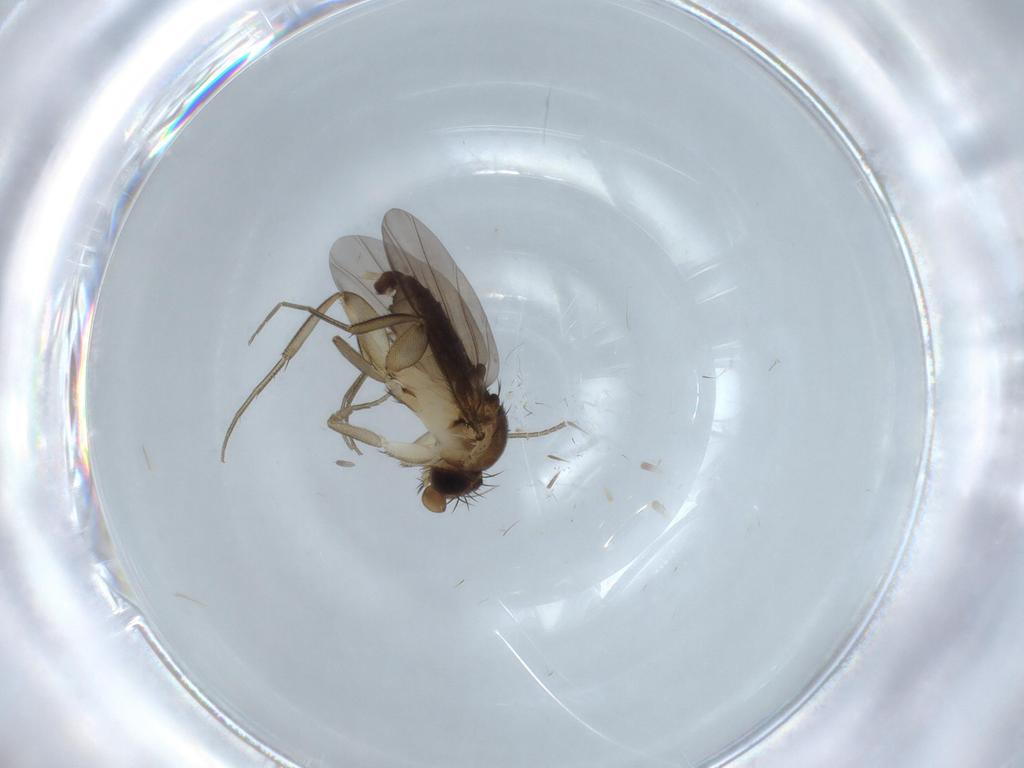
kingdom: Animalia
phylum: Arthropoda
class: Insecta
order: Diptera
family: Phoridae
